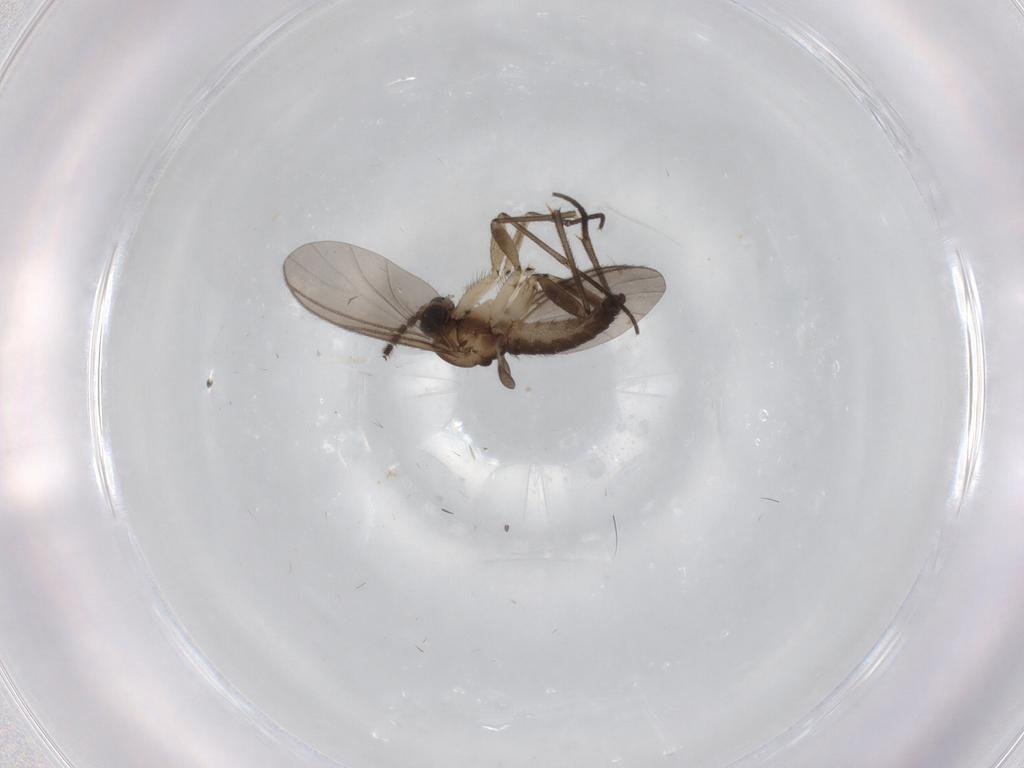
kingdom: Animalia
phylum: Arthropoda
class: Insecta
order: Diptera
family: Sciaridae
